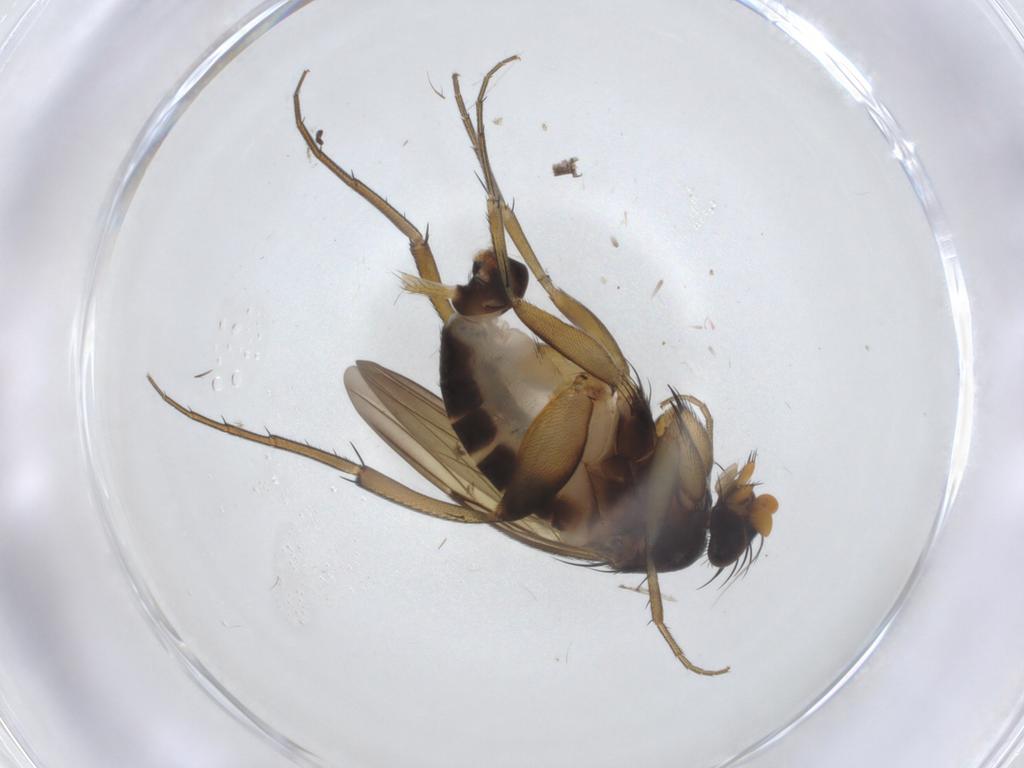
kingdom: Animalia
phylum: Arthropoda
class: Insecta
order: Diptera
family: Phoridae
